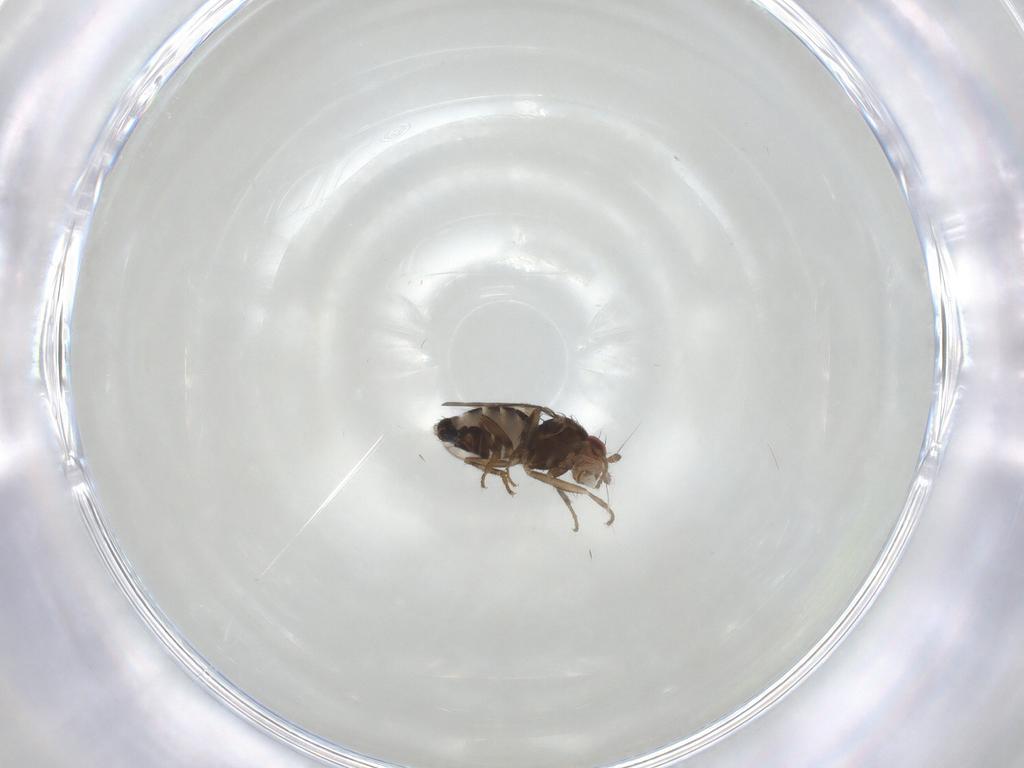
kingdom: Animalia
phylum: Arthropoda
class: Insecta
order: Diptera
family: Sphaeroceridae
